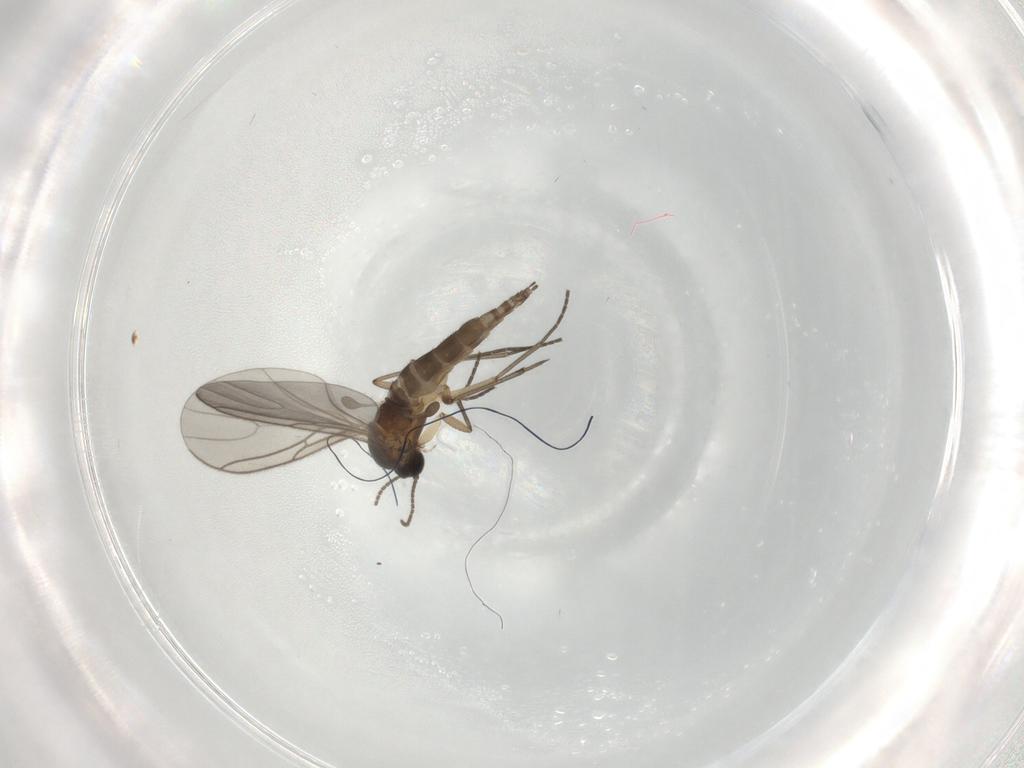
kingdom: Animalia
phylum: Arthropoda
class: Insecta
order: Diptera
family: Sciaridae
